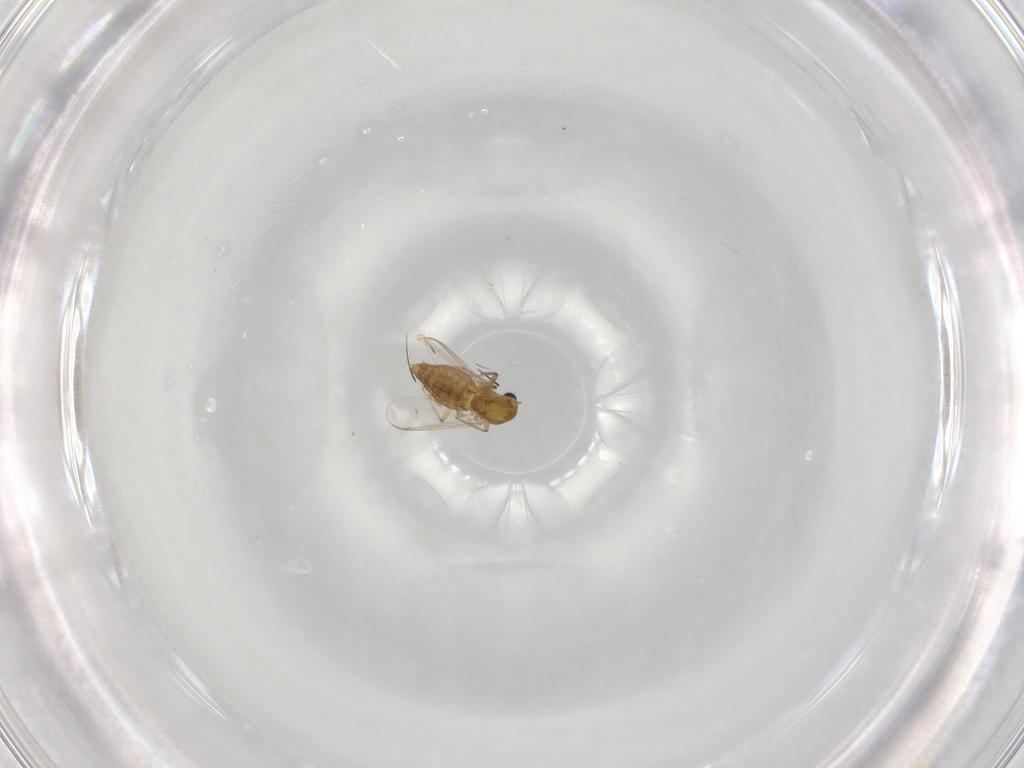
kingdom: Animalia
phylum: Arthropoda
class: Insecta
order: Diptera
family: Chironomidae
